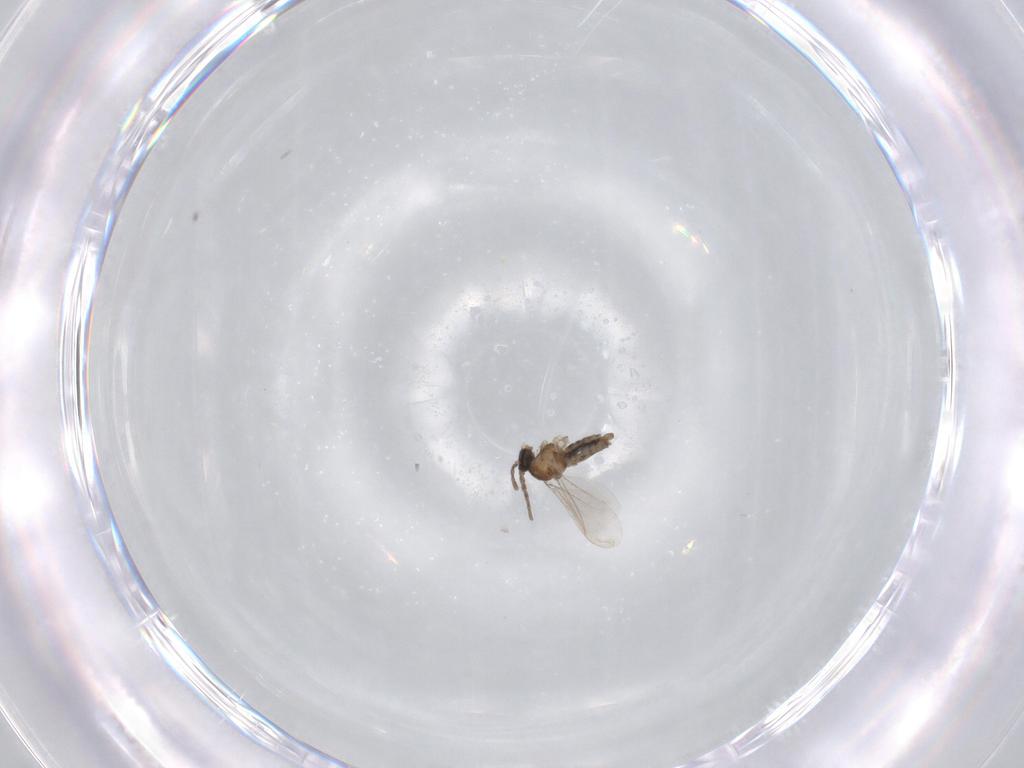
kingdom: Animalia
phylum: Arthropoda
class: Insecta
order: Diptera
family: Cecidomyiidae
